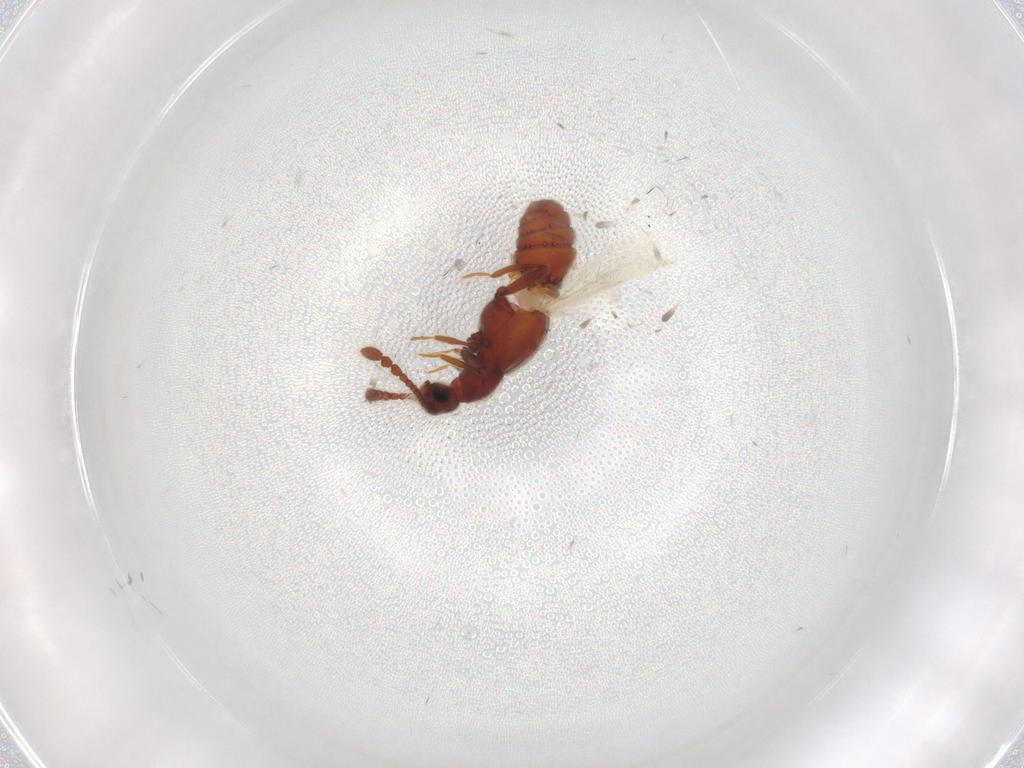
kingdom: Animalia
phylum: Arthropoda
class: Insecta
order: Coleoptera
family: Staphylinidae
